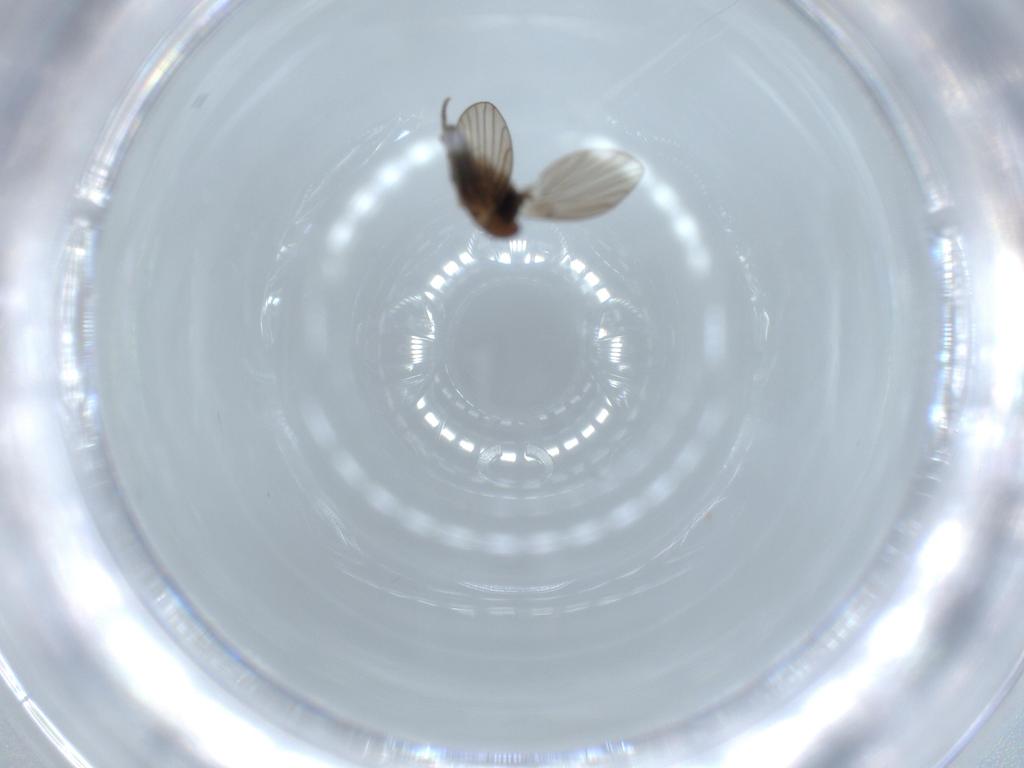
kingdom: Animalia
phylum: Arthropoda
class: Insecta
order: Diptera
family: Psychodidae
